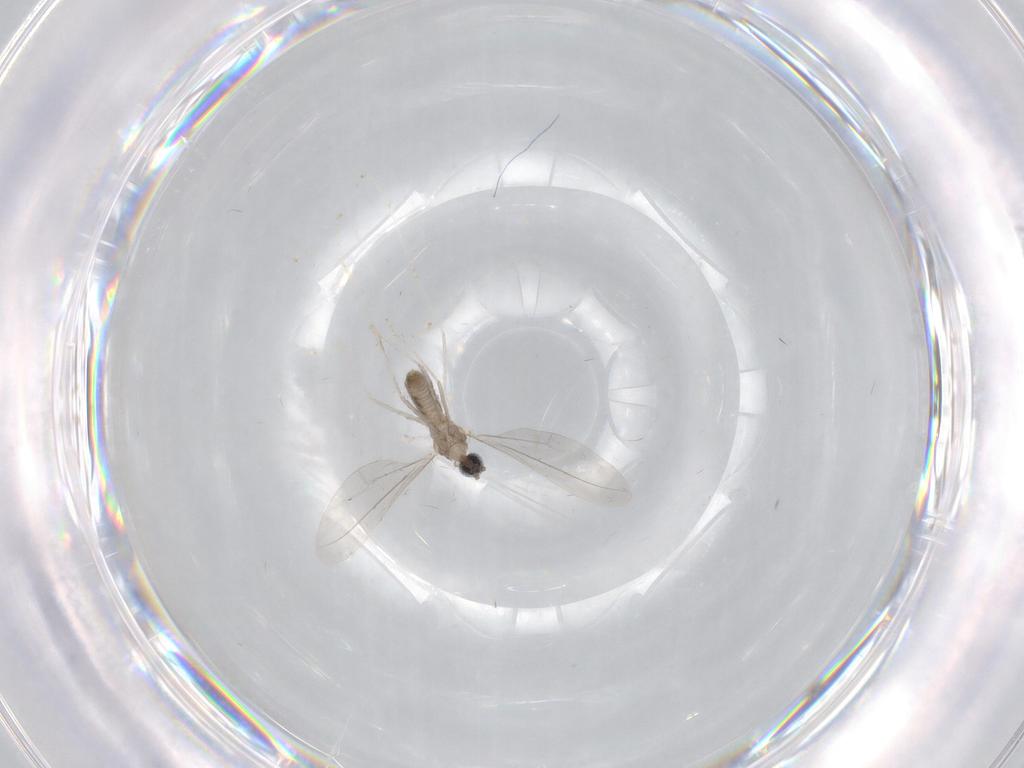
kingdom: Animalia
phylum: Arthropoda
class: Insecta
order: Diptera
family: Cecidomyiidae
